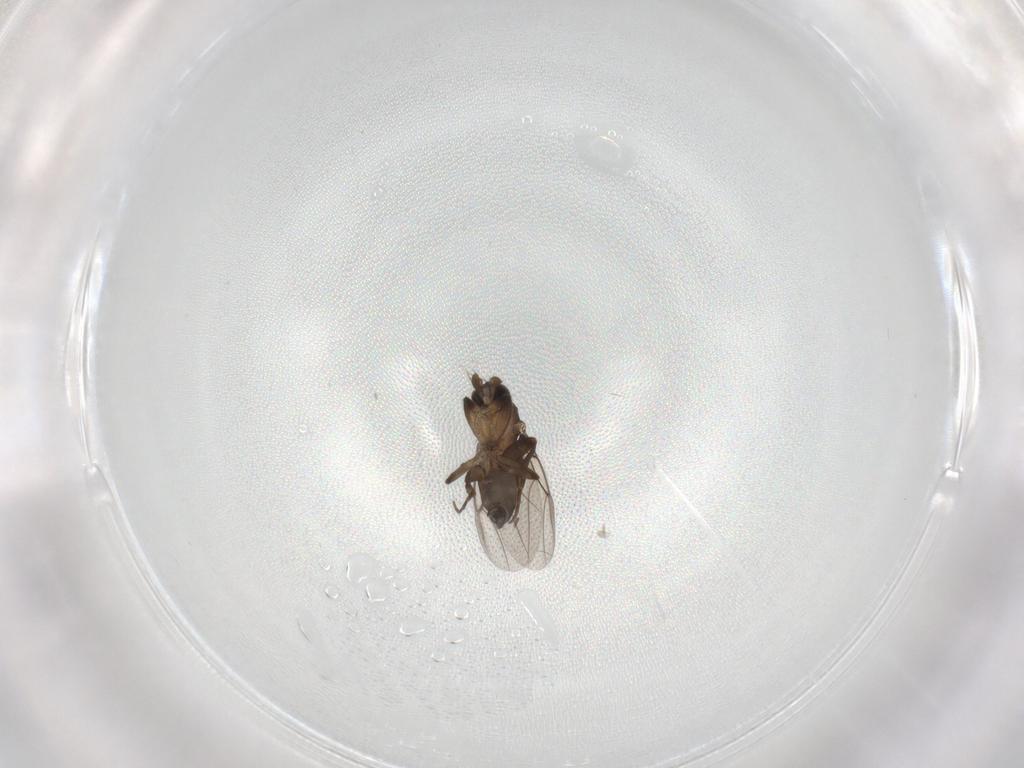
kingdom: Animalia
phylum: Arthropoda
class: Insecta
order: Diptera
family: Phoridae
